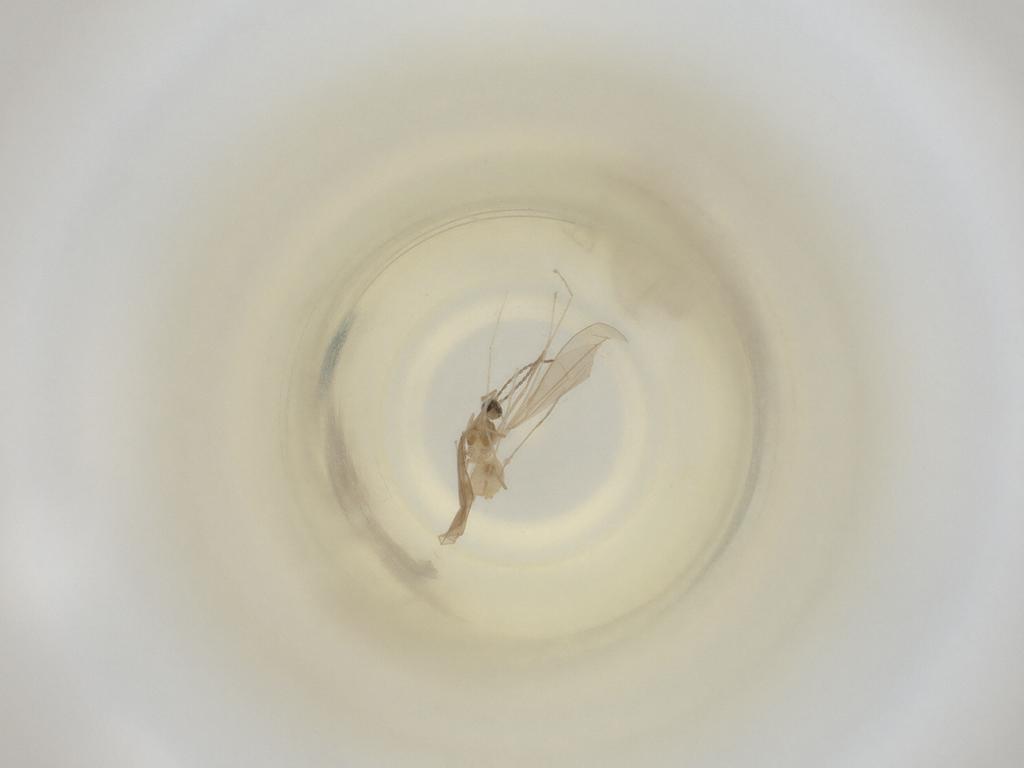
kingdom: Animalia
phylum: Arthropoda
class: Insecta
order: Diptera
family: Cecidomyiidae
